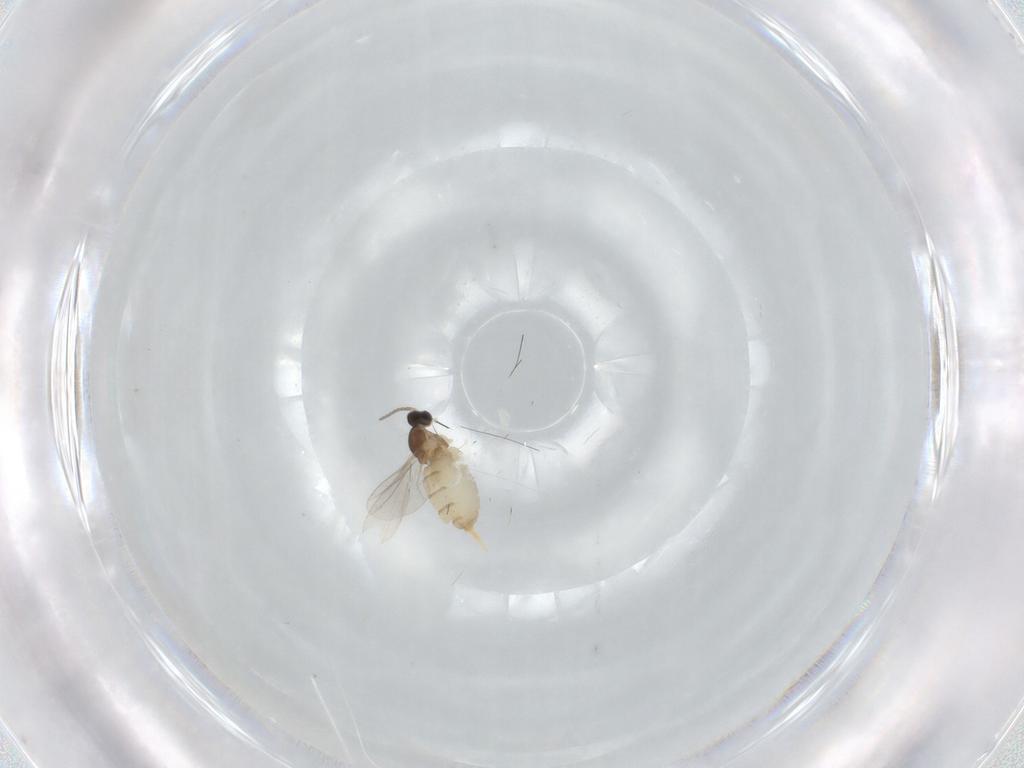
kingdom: Animalia
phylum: Arthropoda
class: Insecta
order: Diptera
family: Cecidomyiidae
